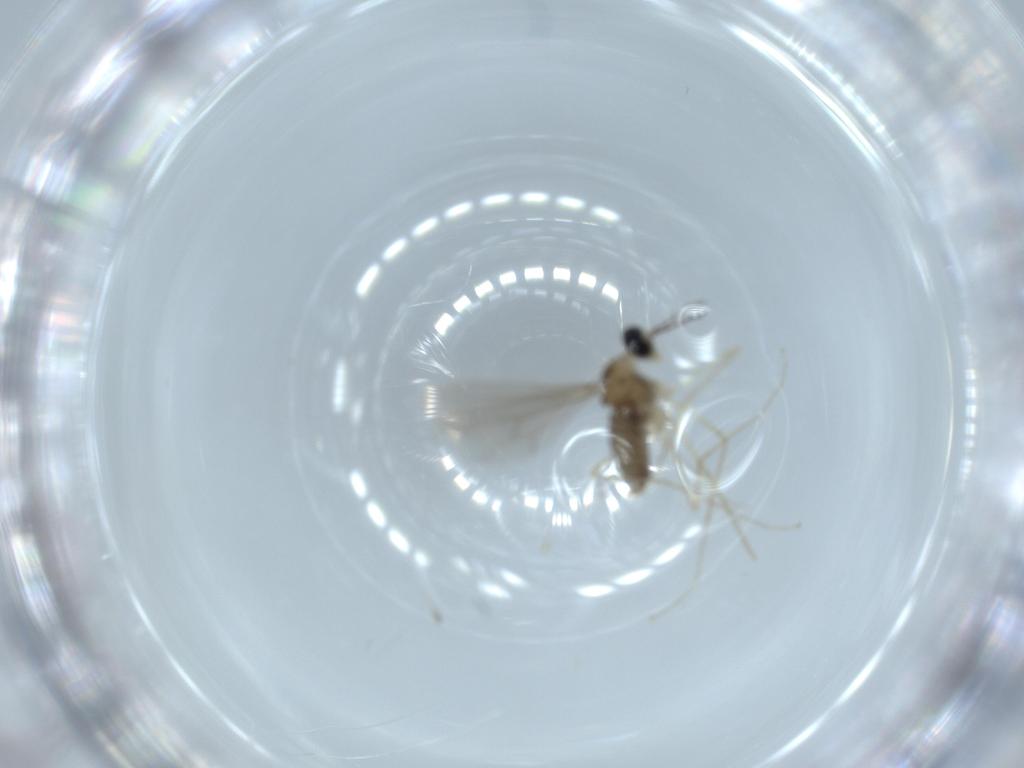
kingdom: Animalia
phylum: Arthropoda
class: Insecta
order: Diptera
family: Cecidomyiidae
